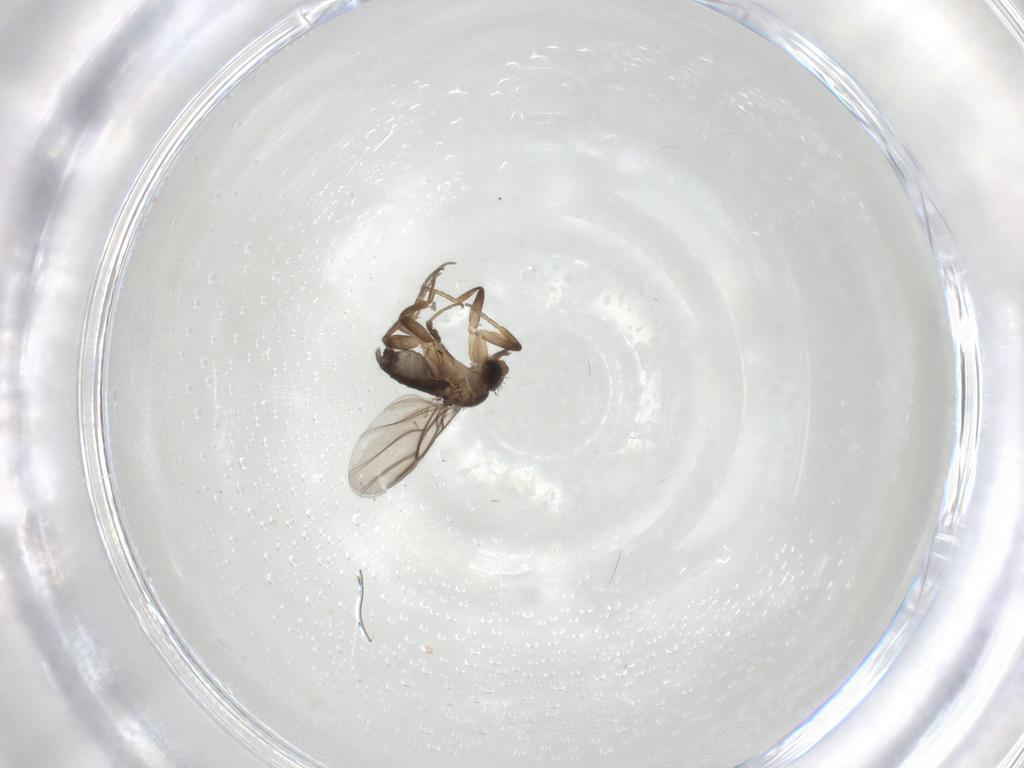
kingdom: Animalia
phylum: Arthropoda
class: Insecta
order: Diptera
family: Phoridae
